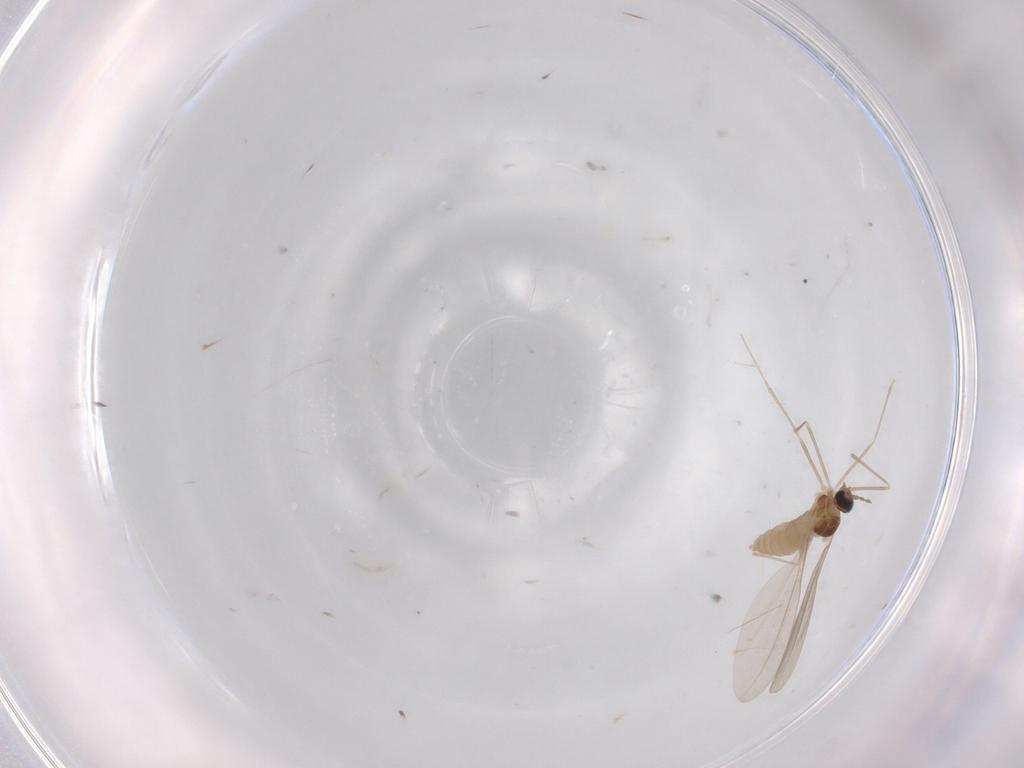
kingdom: Animalia
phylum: Arthropoda
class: Insecta
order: Diptera
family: Cecidomyiidae
